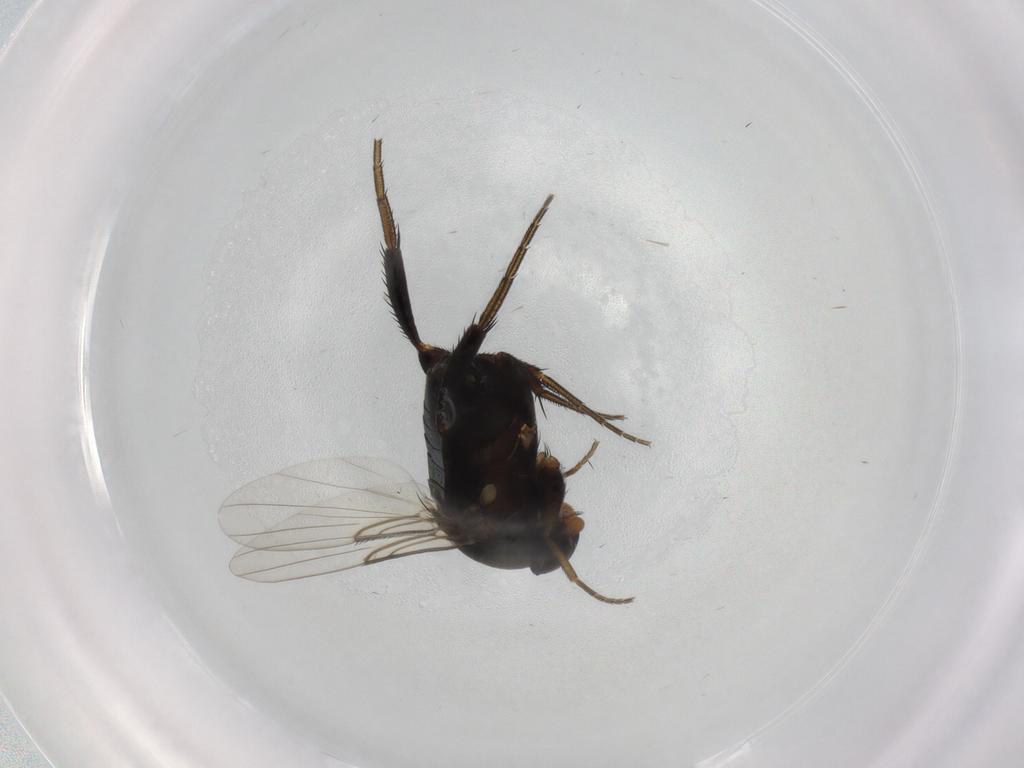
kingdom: Animalia
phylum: Arthropoda
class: Insecta
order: Diptera
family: Phoridae
